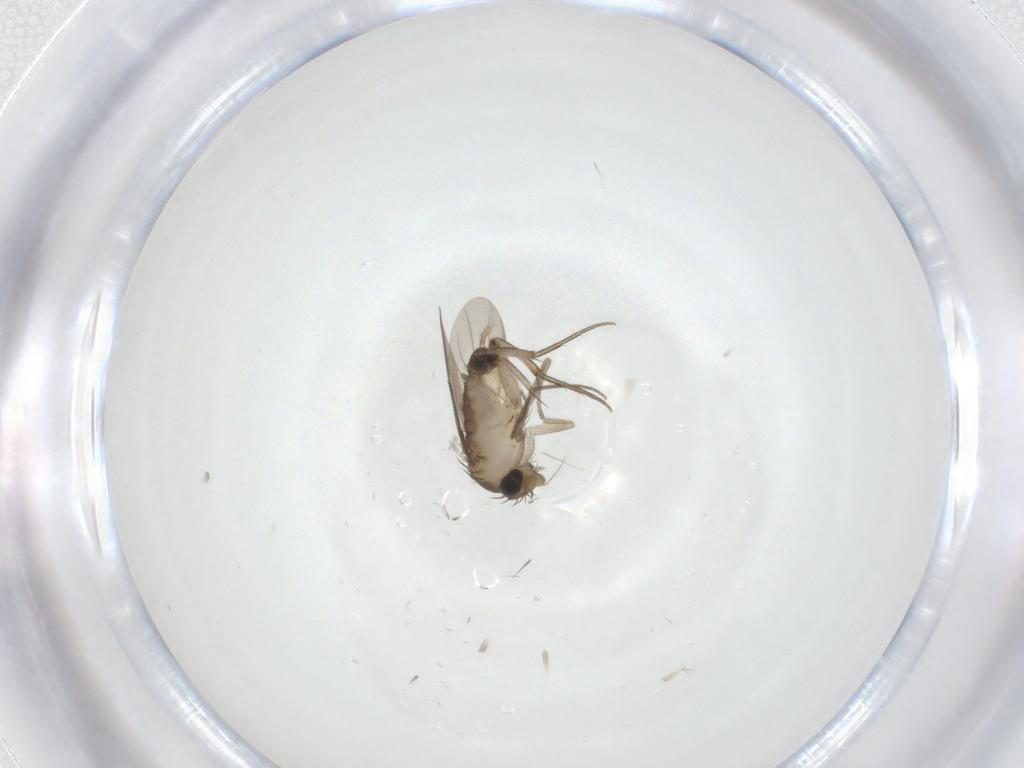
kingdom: Animalia
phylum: Arthropoda
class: Insecta
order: Diptera
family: Phoridae
